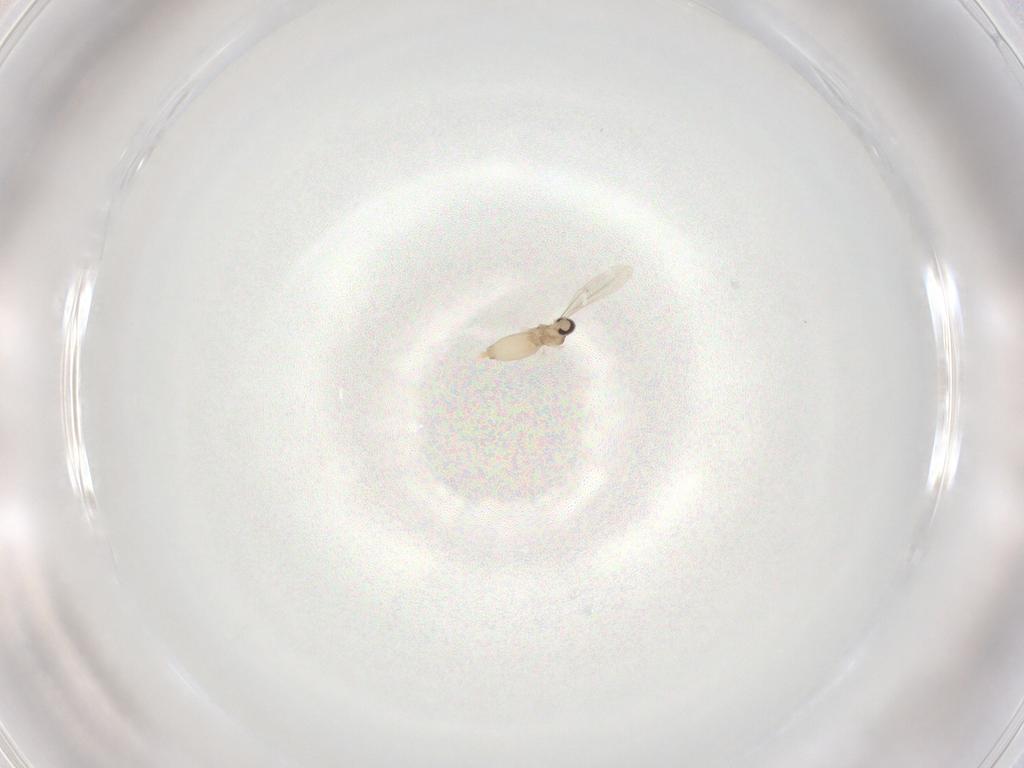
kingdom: Animalia
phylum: Arthropoda
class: Insecta
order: Diptera
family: Cecidomyiidae
